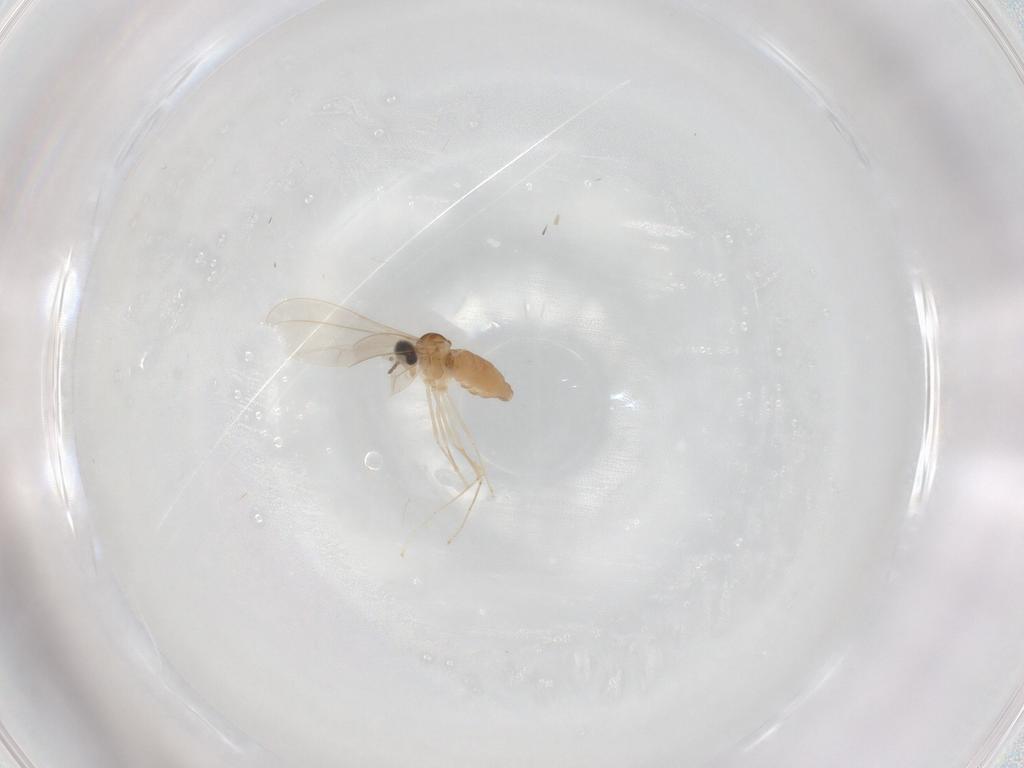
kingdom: Animalia
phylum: Arthropoda
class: Insecta
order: Diptera
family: Cecidomyiidae
